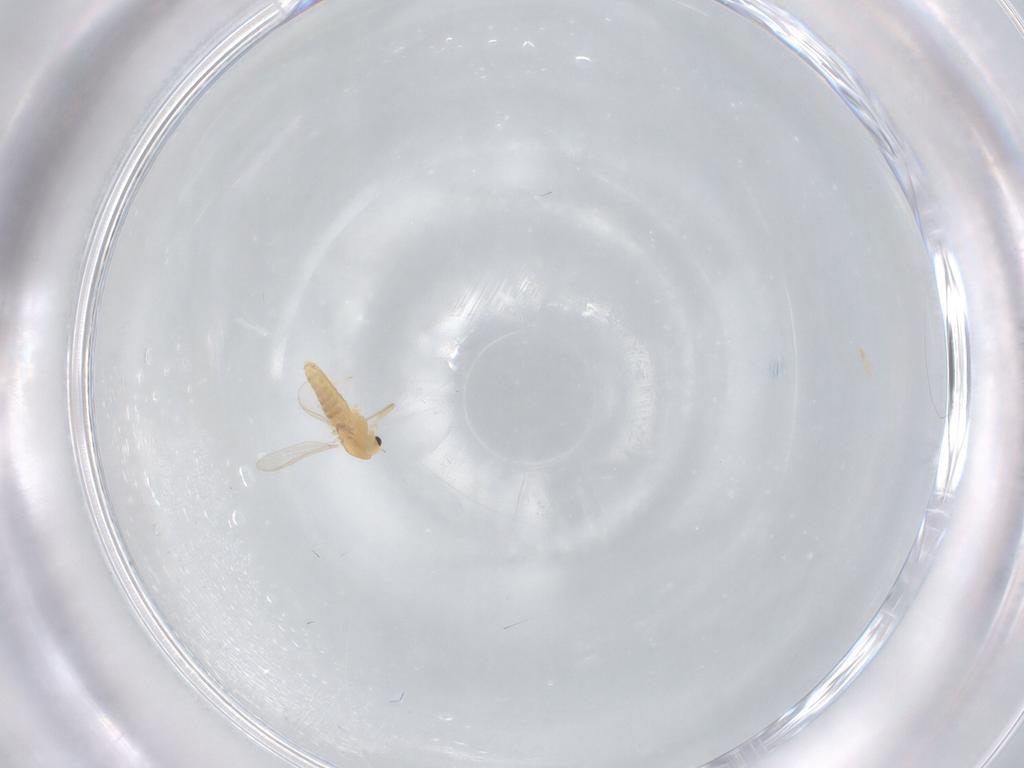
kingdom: Animalia
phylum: Arthropoda
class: Insecta
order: Diptera
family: Chironomidae
